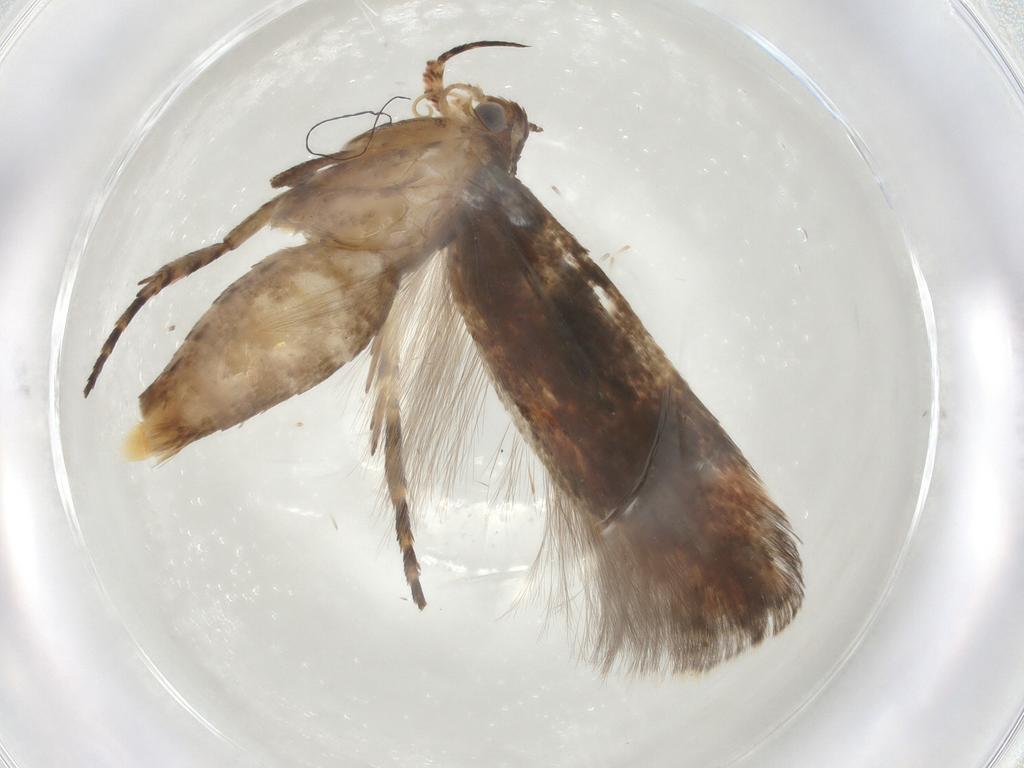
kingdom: Animalia
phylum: Arthropoda
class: Insecta
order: Lepidoptera
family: Gelechiidae
